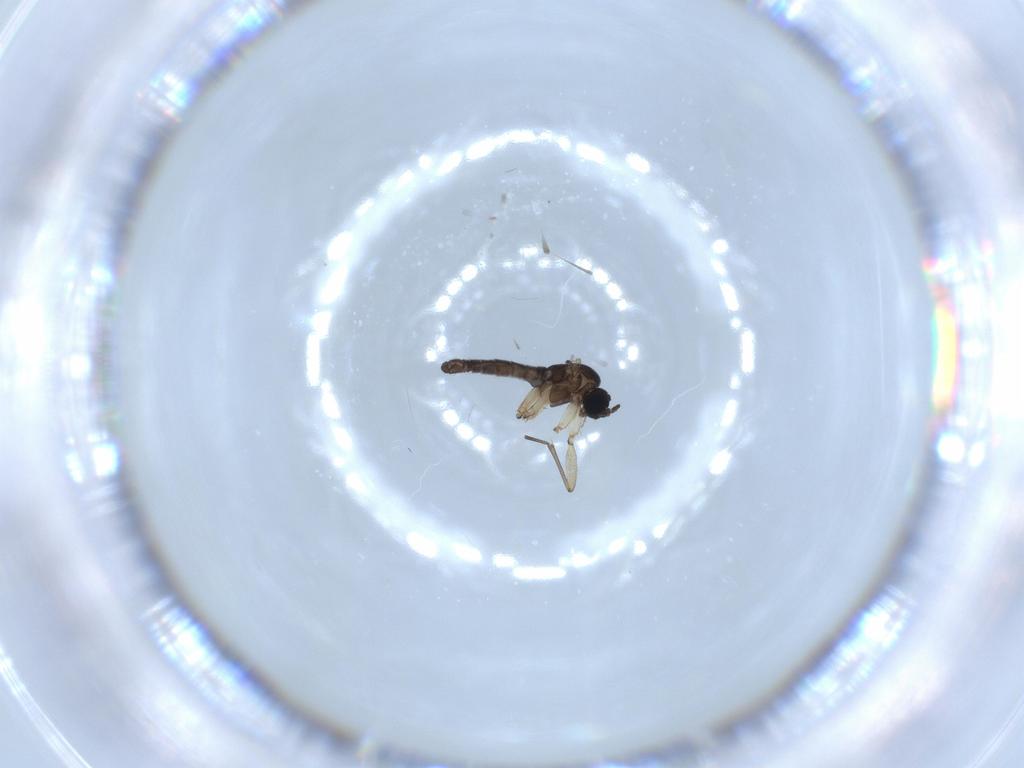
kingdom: Animalia
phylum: Arthropoda
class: Insecta
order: Diptera
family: Sciaridae
